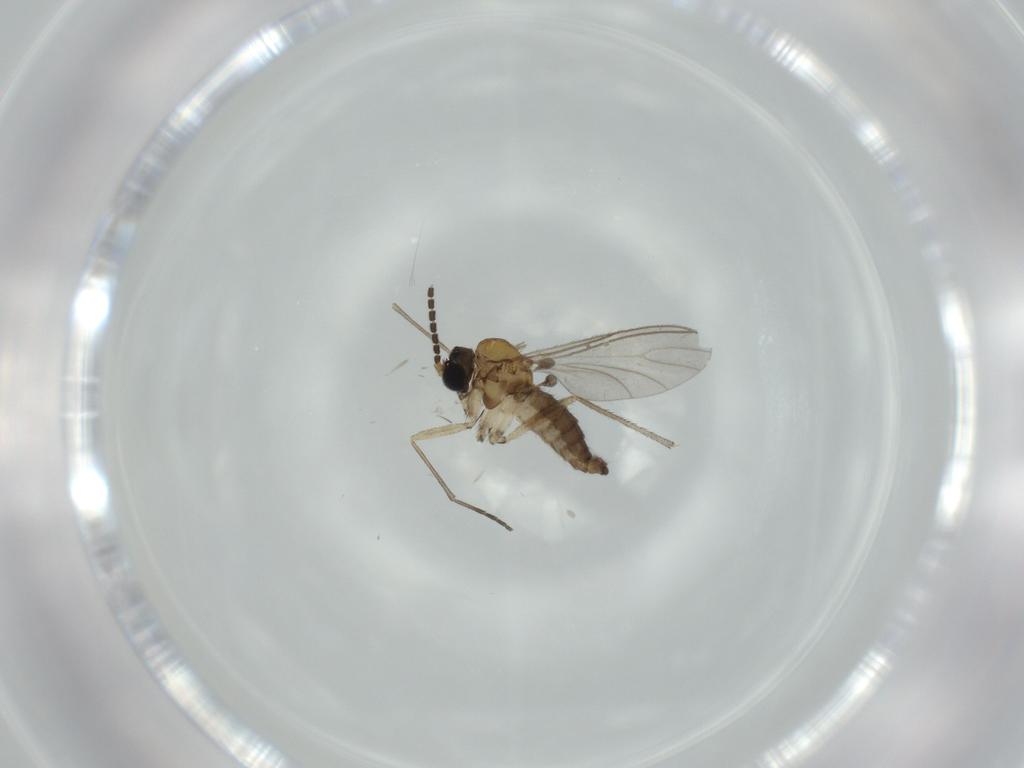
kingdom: Animalia
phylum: Arthropoda
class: Insecta
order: Diptera
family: Sciaridae
